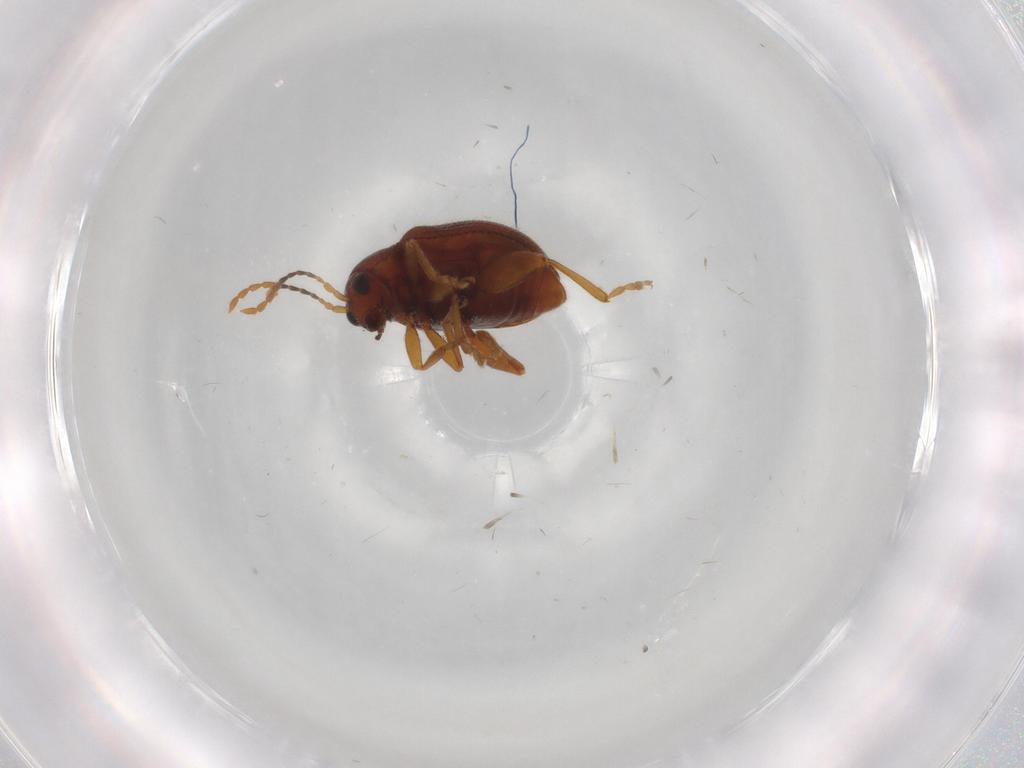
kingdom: Animalia
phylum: Arthropoda
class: Insecta
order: Coleoptera
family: Chrysomelidae
